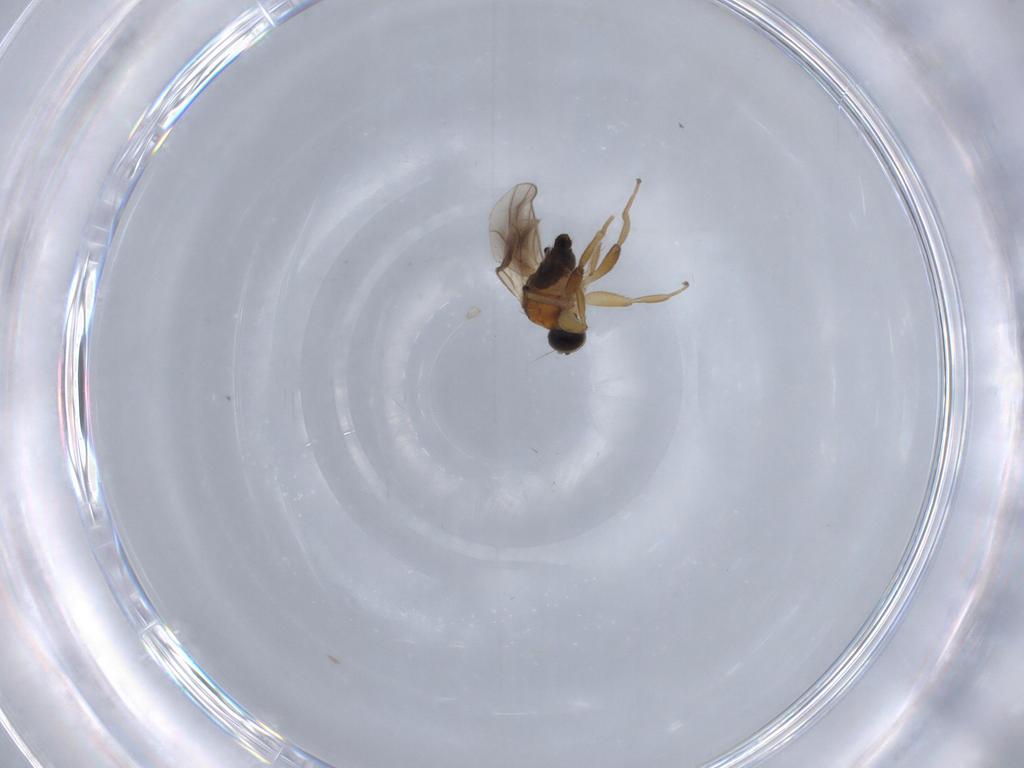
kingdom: Animalia
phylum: Arthropoda
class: Insecta
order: Diptera
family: Hybotidae
